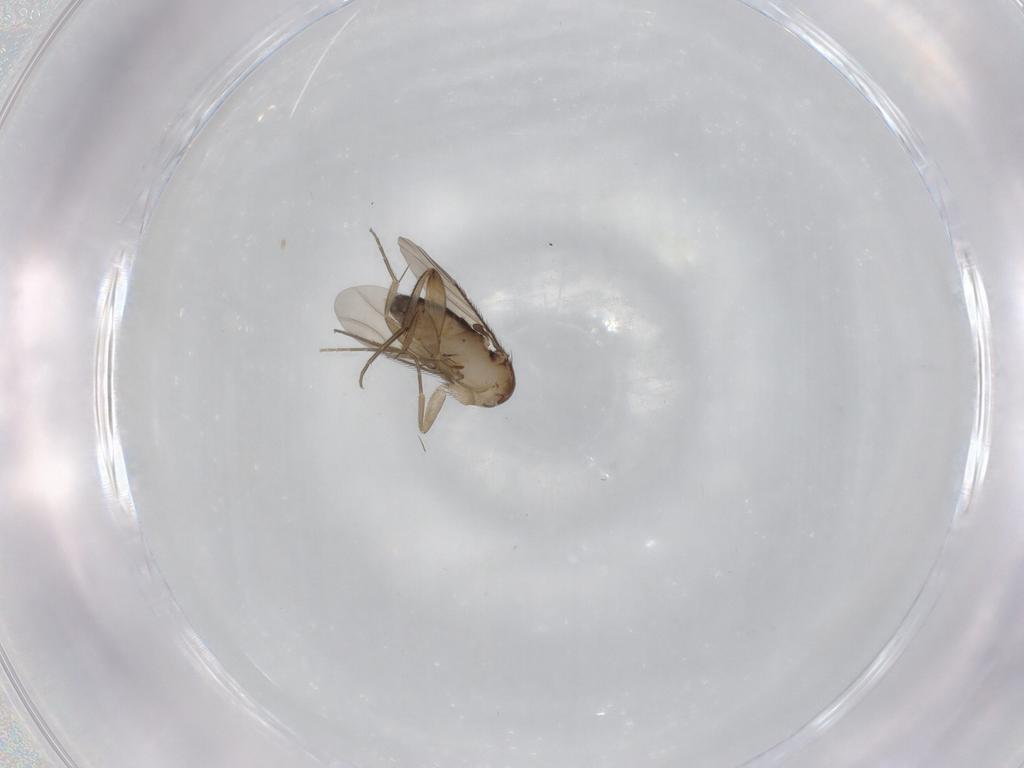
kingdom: Animalia
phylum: Arthropoda
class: Insecta
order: Diptera
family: Phoridae
